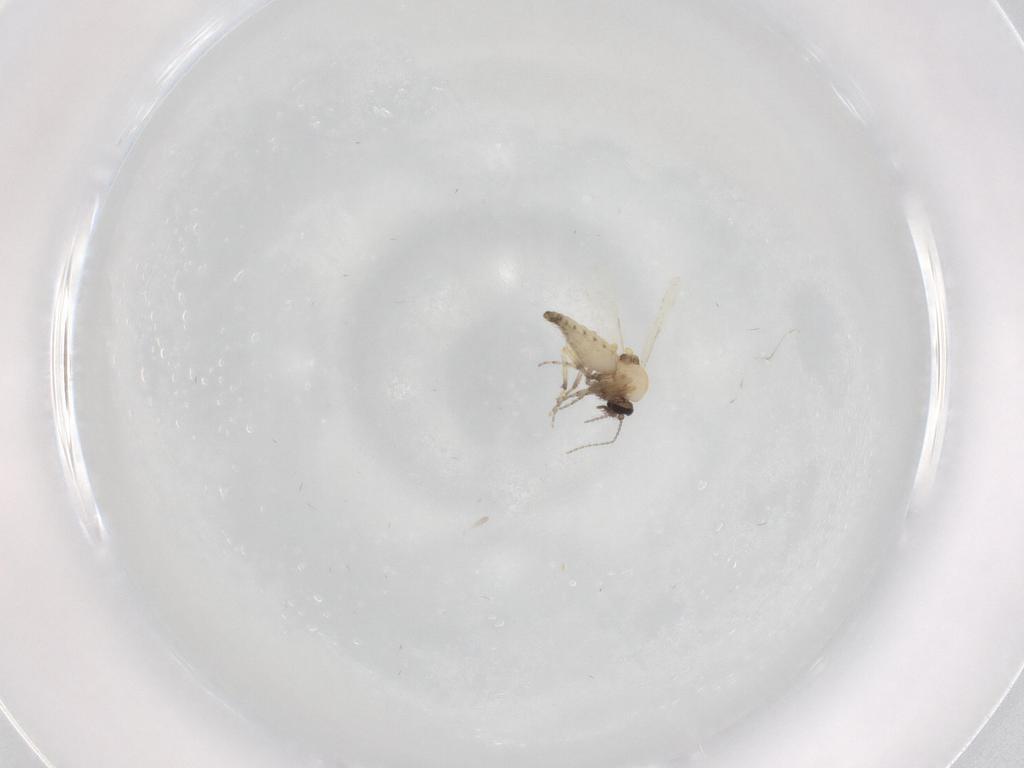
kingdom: Animalia
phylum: Arthropoda
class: Insecta
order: Diptera
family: Ceratopogonidae
